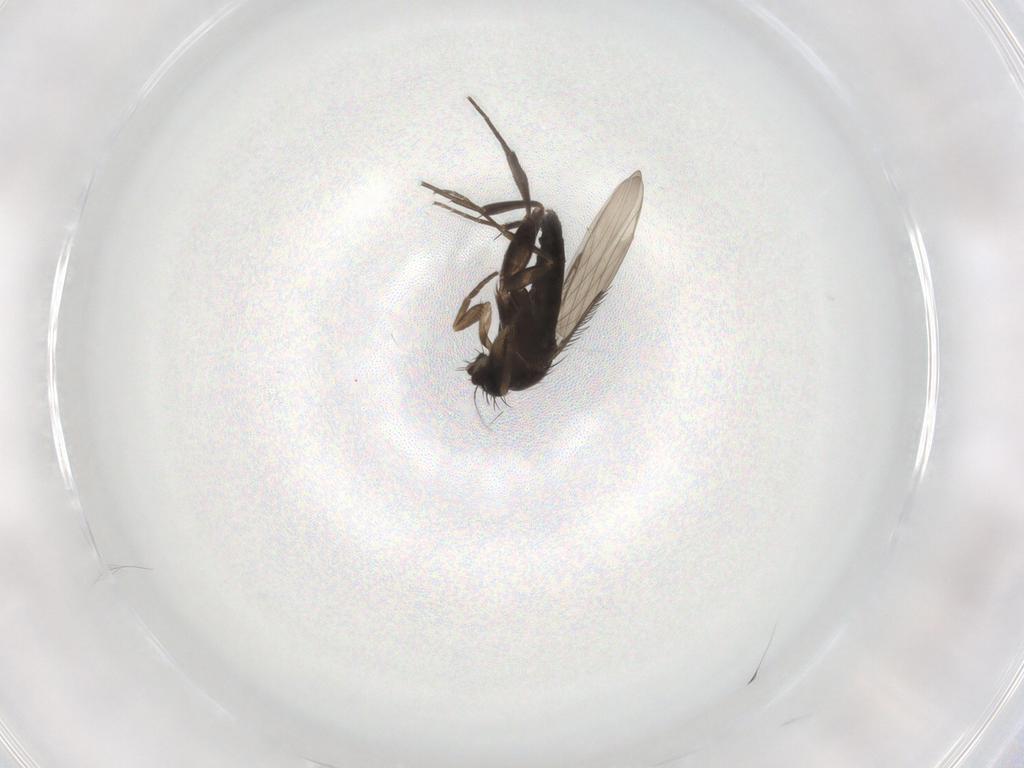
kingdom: Animalia
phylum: Arthropoda
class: Insecta
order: Diptera
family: Phoridae
